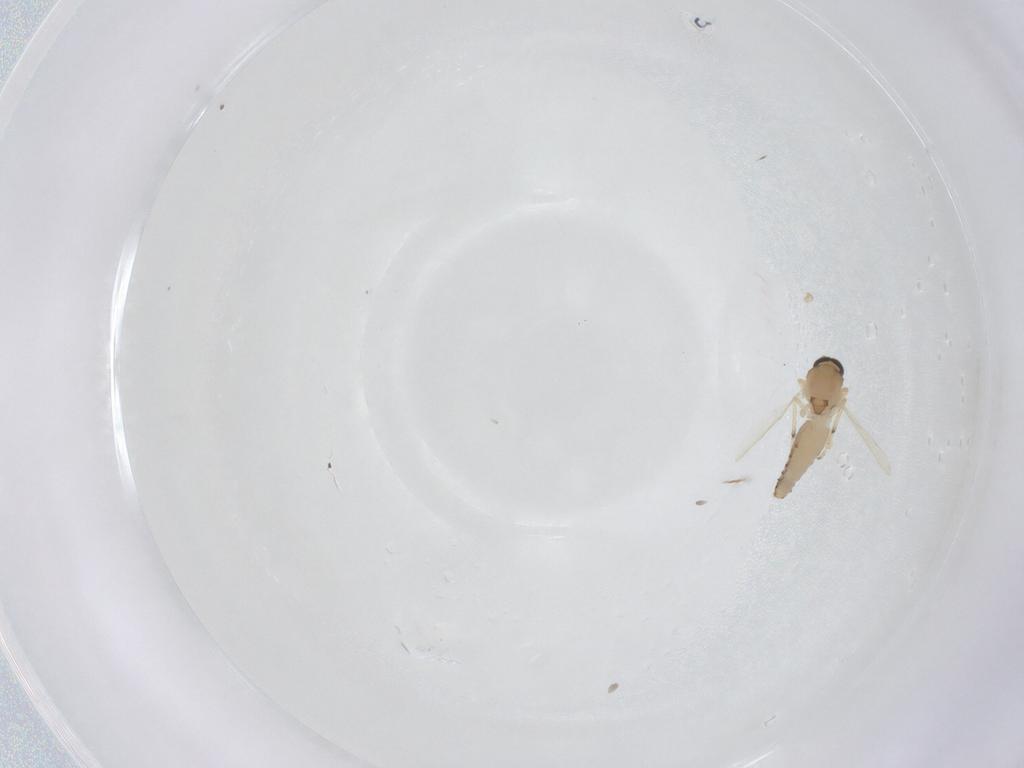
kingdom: Animalia
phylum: Arthropoda
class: Insecta
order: Diptera
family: Ceratopogonidae
